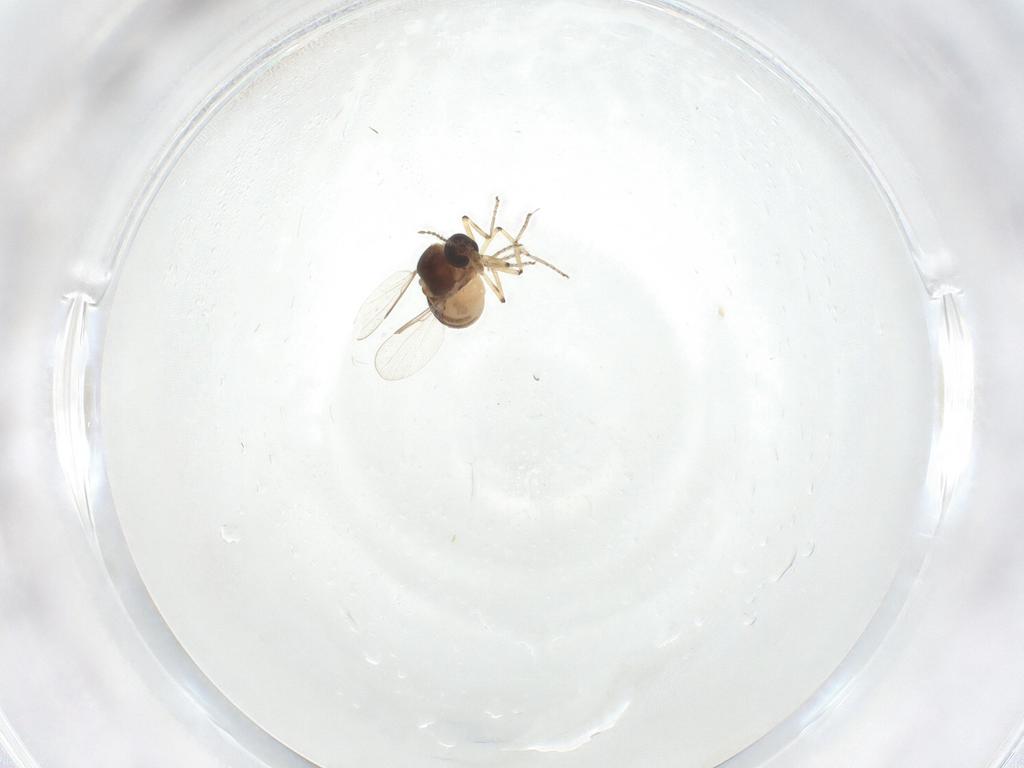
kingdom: Animalia
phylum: Arthropoda
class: Insecta
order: Diptera
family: Ceratopogonidae
